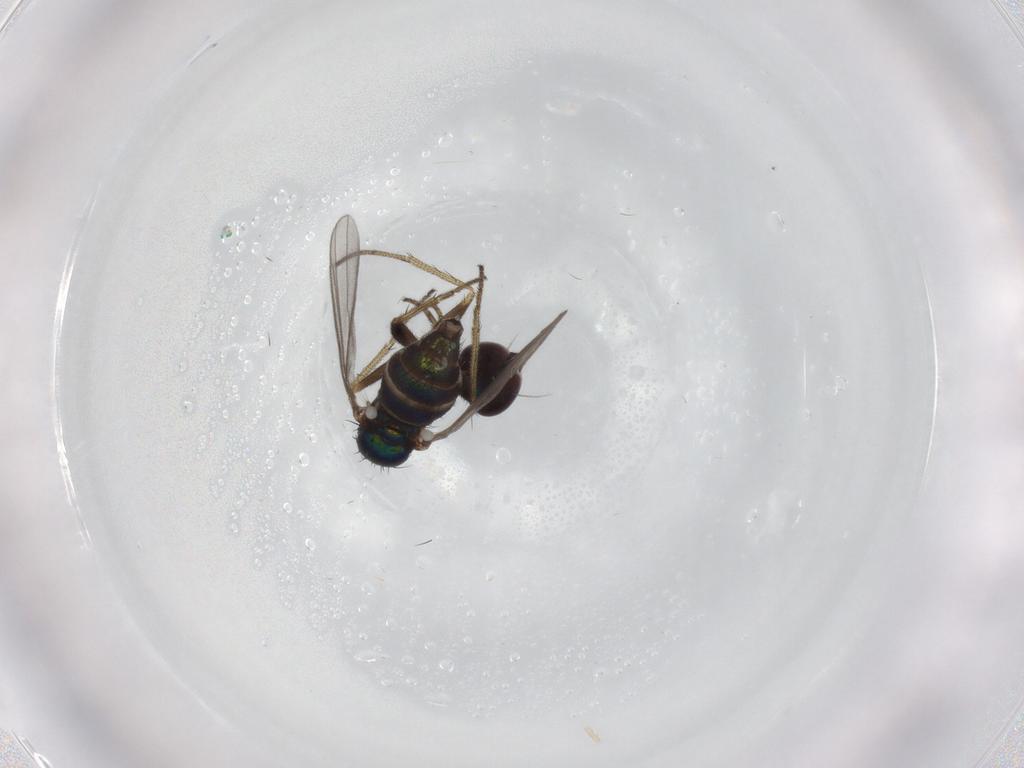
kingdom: Animalia
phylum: Arthropoda
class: Insecta
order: Diptera
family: Dolichopodidae
